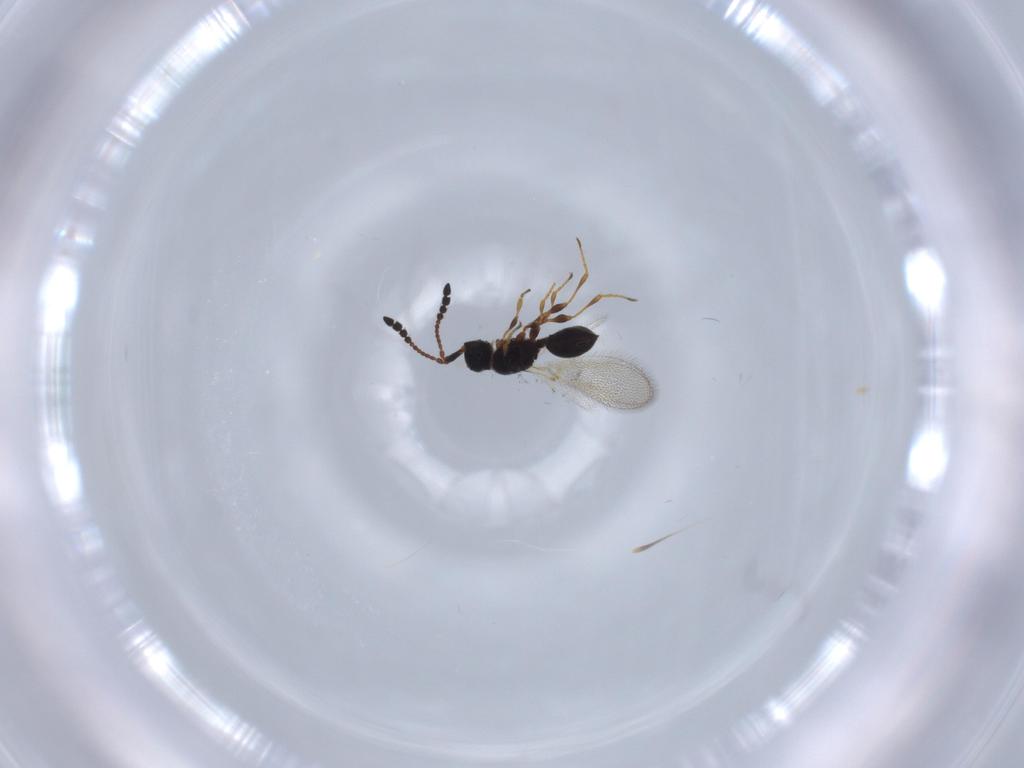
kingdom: Animalia
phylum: Arthropoda
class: Insecta
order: Hymenoptera
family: Diapriidae
